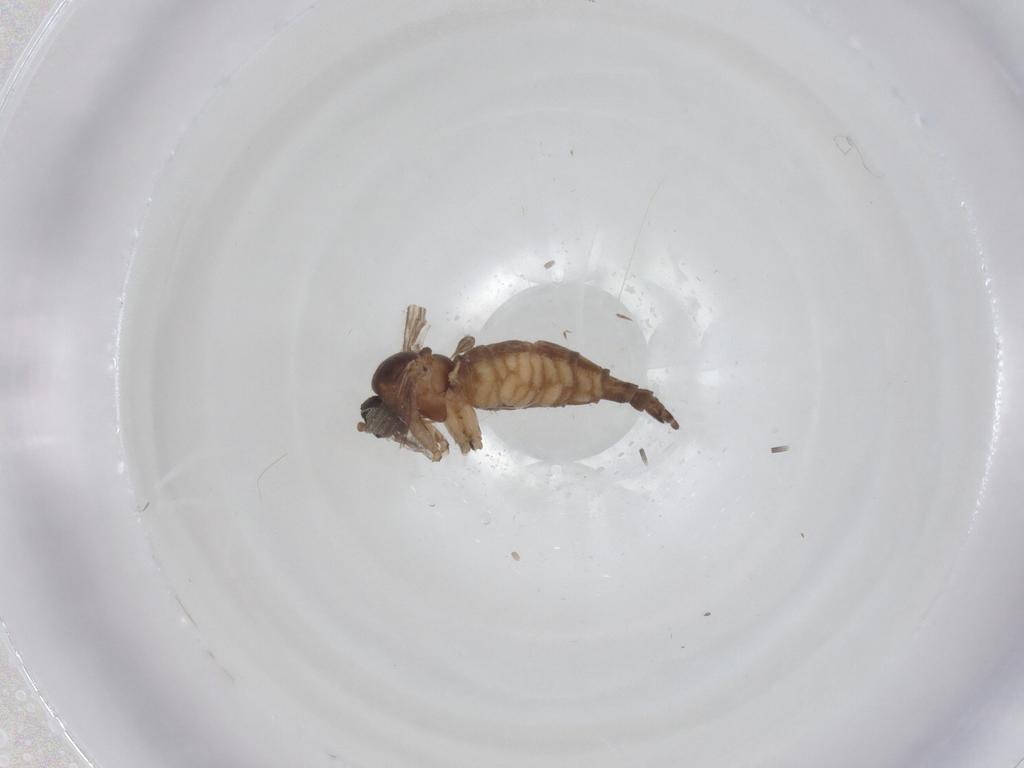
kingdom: Animalia
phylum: Arthropoda
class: Insecta
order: Diptera
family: Sciaridae
